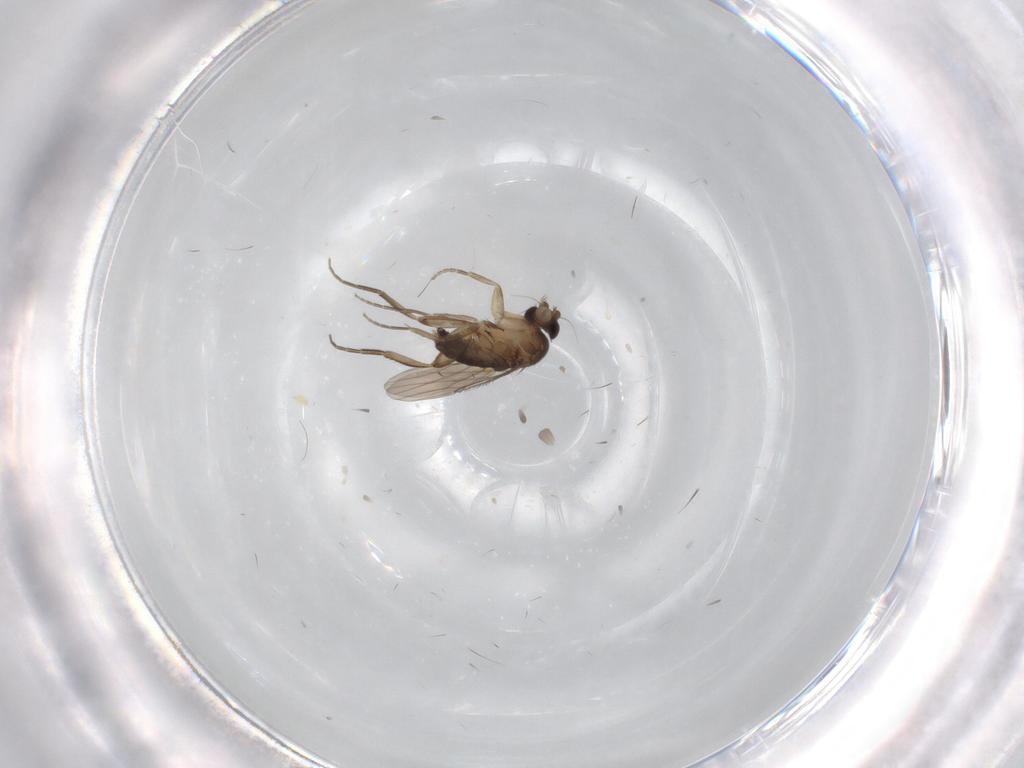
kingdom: Animalia
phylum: Arthropoda
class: Insecta
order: Diptera
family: Phoridae
